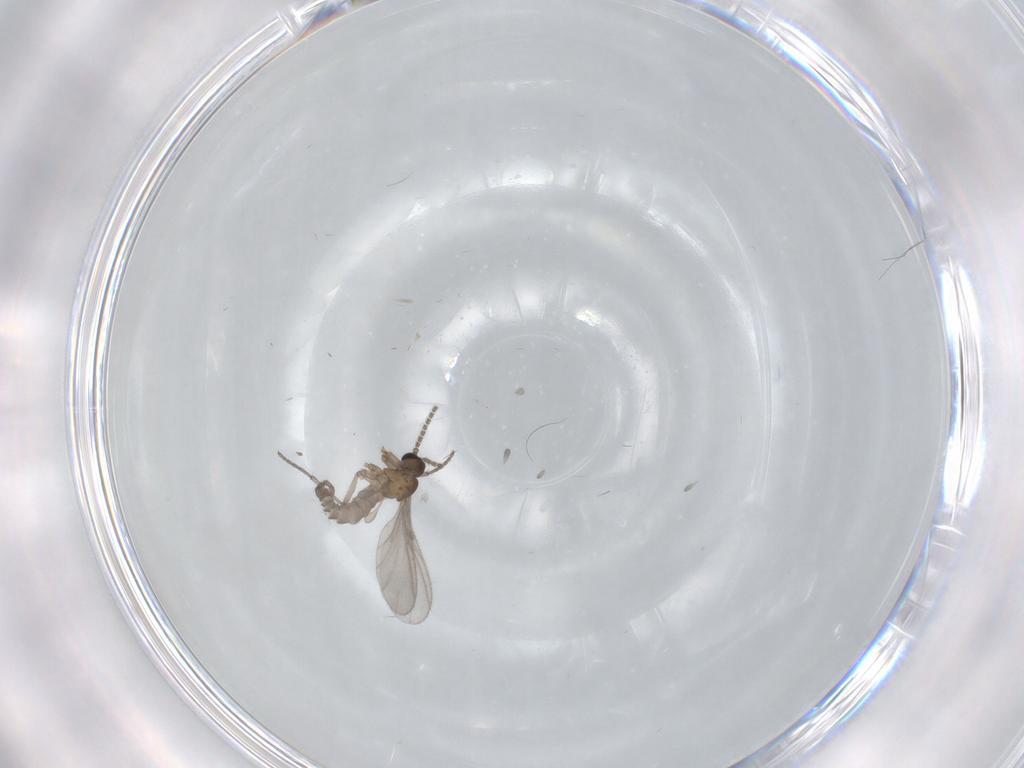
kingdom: Animalia
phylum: Arthropoda
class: Insecta
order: Diptera
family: Sciaridae
